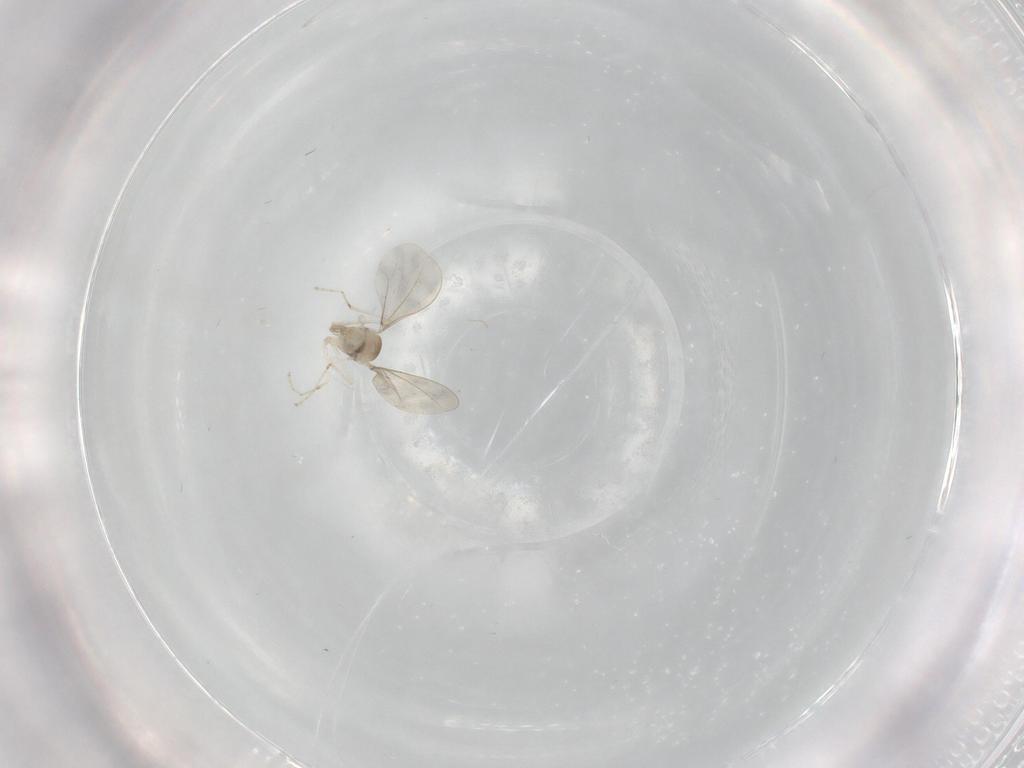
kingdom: Animalia
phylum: Arthropoda
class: Insecta
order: Diptera
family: Cecidomyiidae
